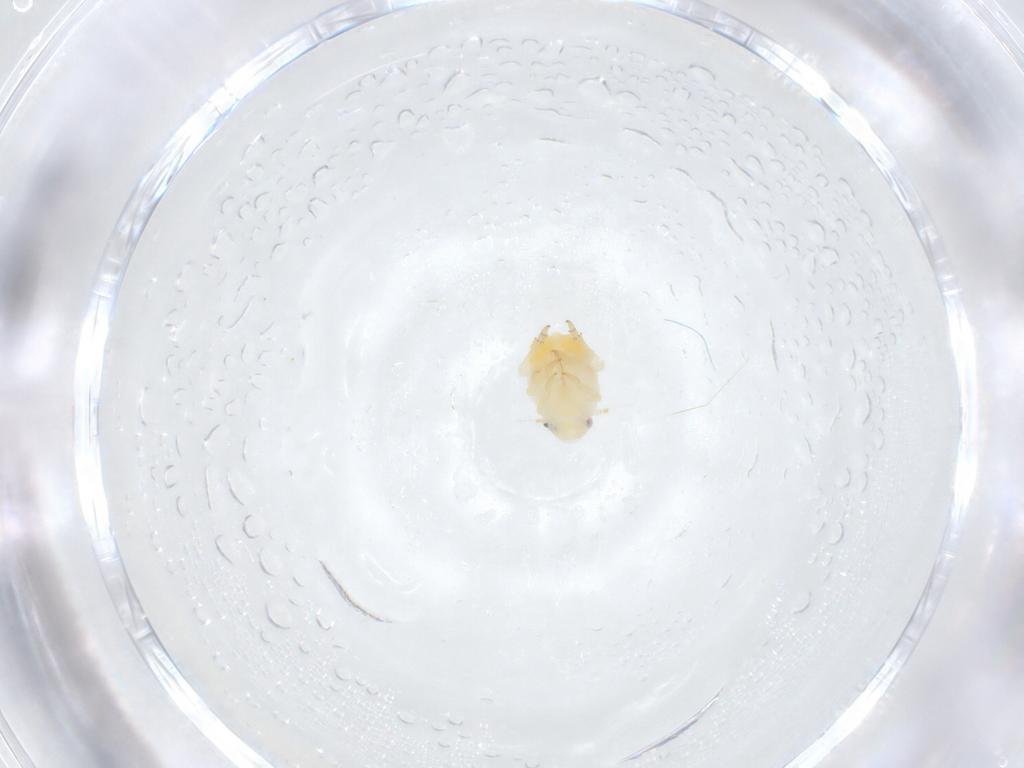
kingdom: Animalia
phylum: Arthropoda
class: Insecta
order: Hemiptera
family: Flatidae
